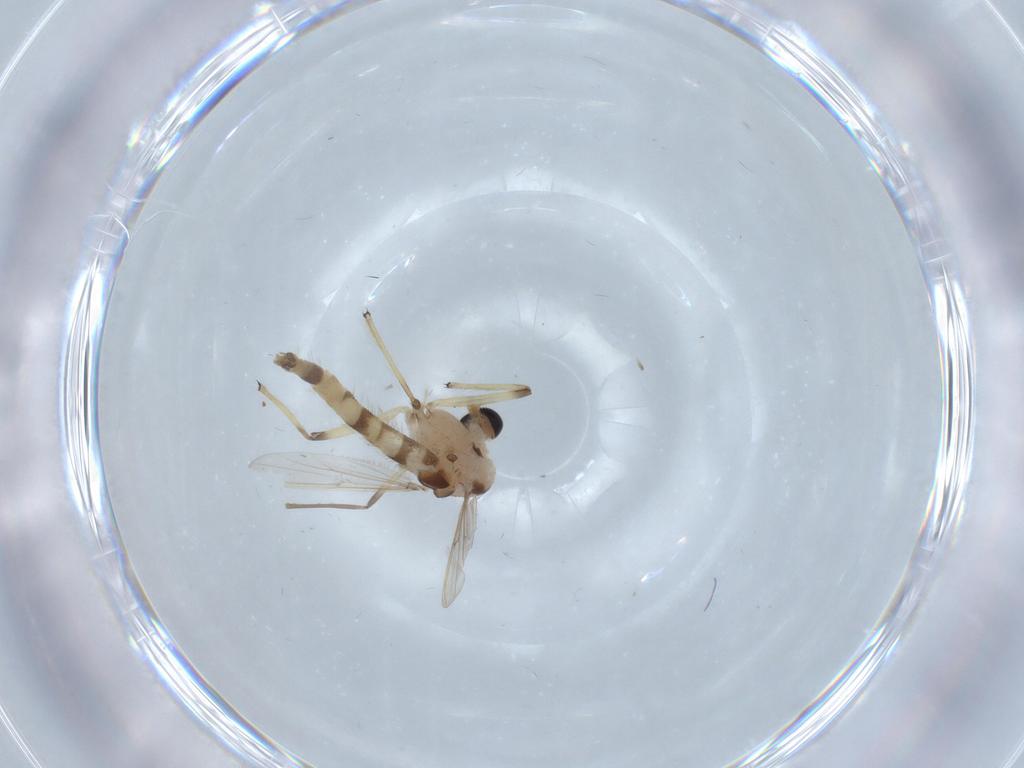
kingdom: Animalia
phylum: Arthropoda
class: Insecta
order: Diptera
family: Chironomidae
